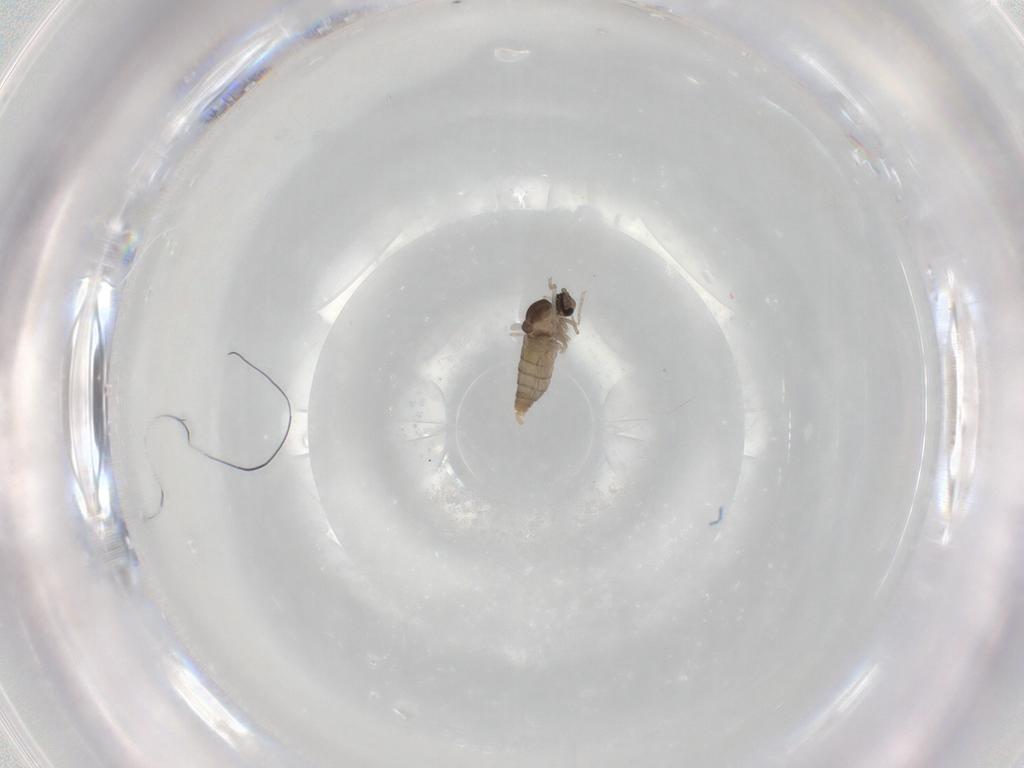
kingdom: Animalia
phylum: Arthropoda
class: Insecta
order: Diptera
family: Cecidomyiidae
